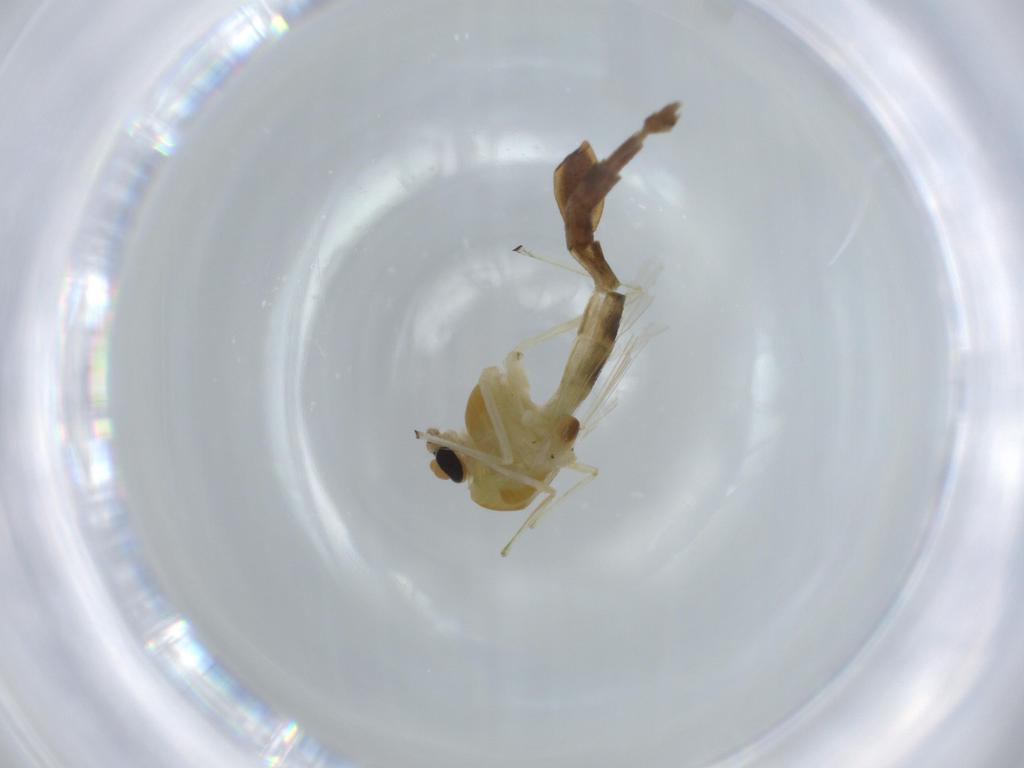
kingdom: Animalia
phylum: Arthropoda
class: Insecta
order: Diptera
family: Chironomidae
